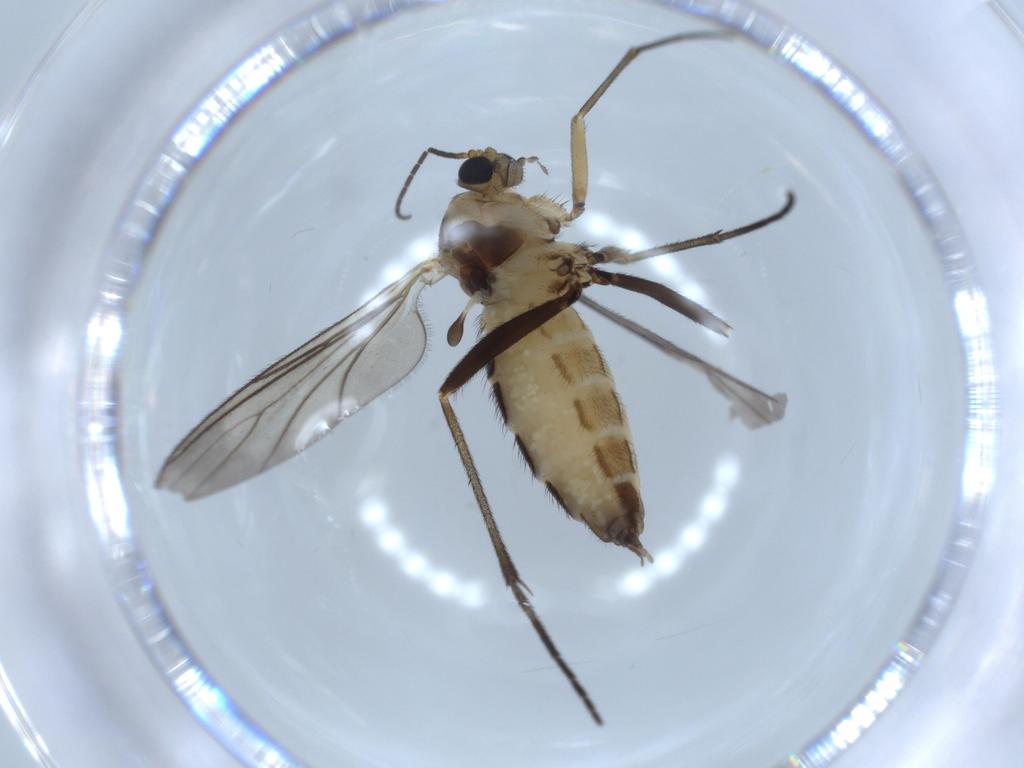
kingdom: Animalia
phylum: Arthropoda
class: Insecta
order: Diptera
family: Sciaridae
